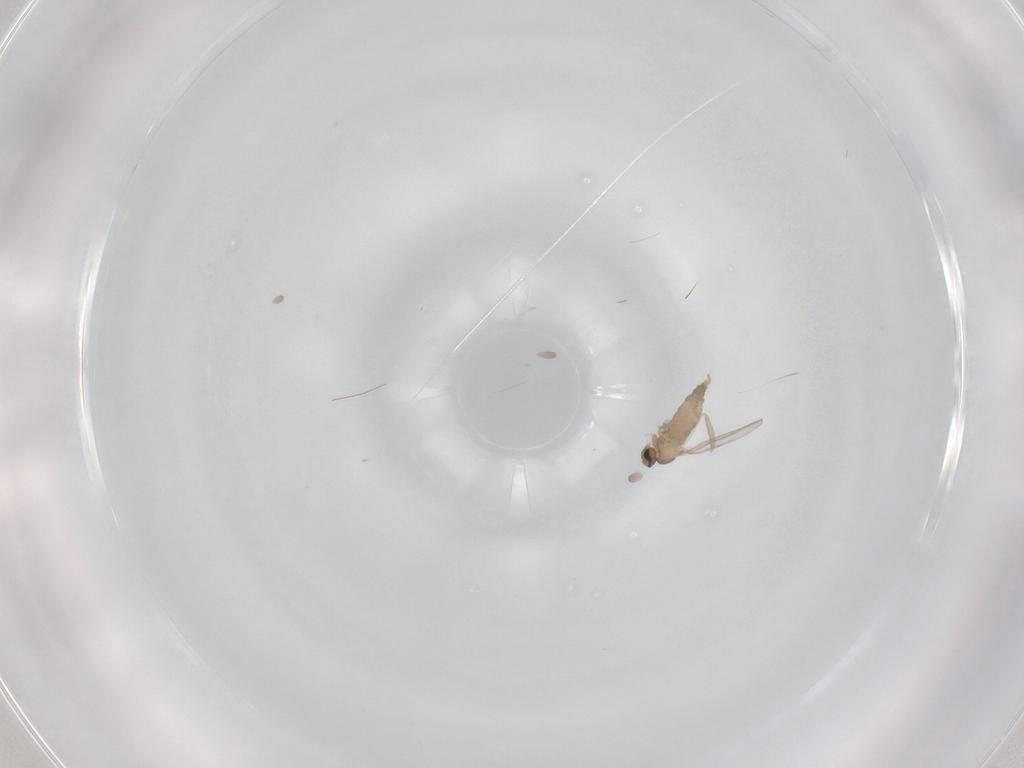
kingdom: Animalia
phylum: Arthropoda
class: Insecta
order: Diptera
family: Cecidomyiidae
